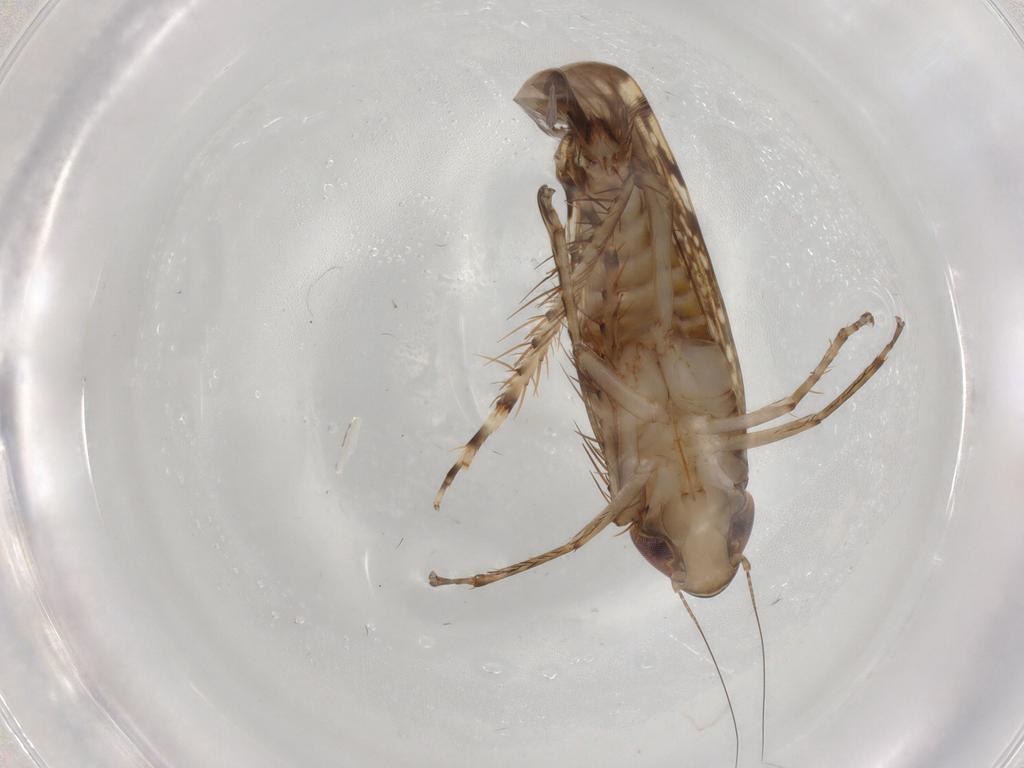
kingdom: Animalia
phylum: Arthropoda
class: Insecta
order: Hemiptera
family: Cicadellidae
